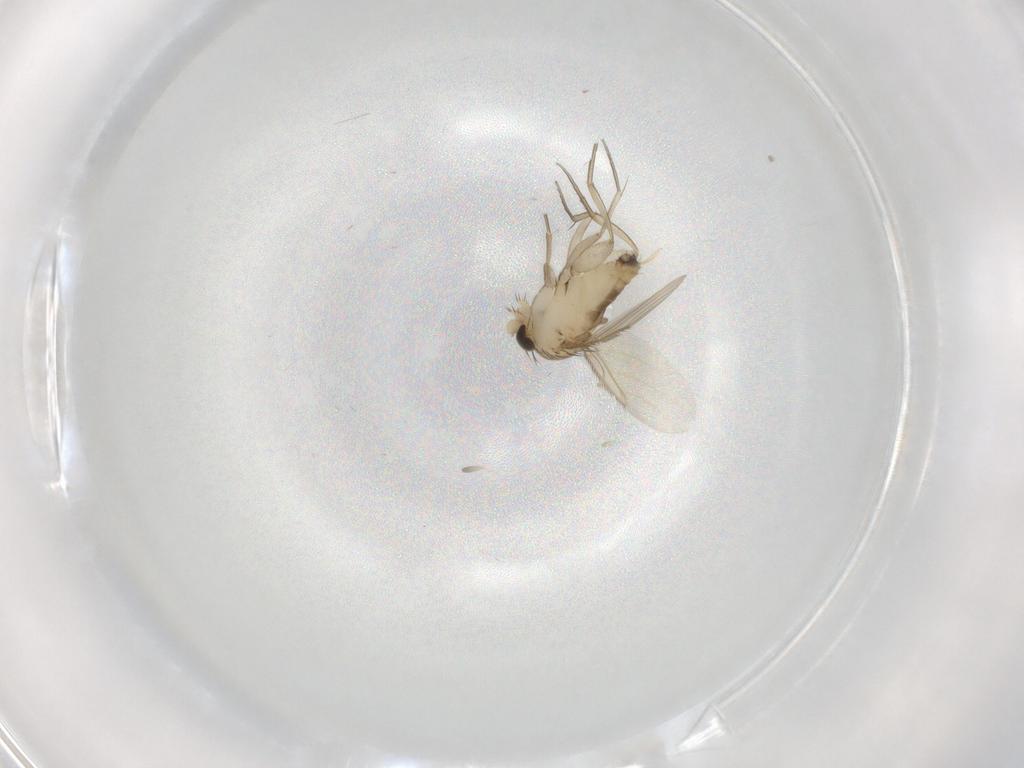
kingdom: Animalia
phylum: Arthropoda
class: Insecta
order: Diptera
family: Phoridae
